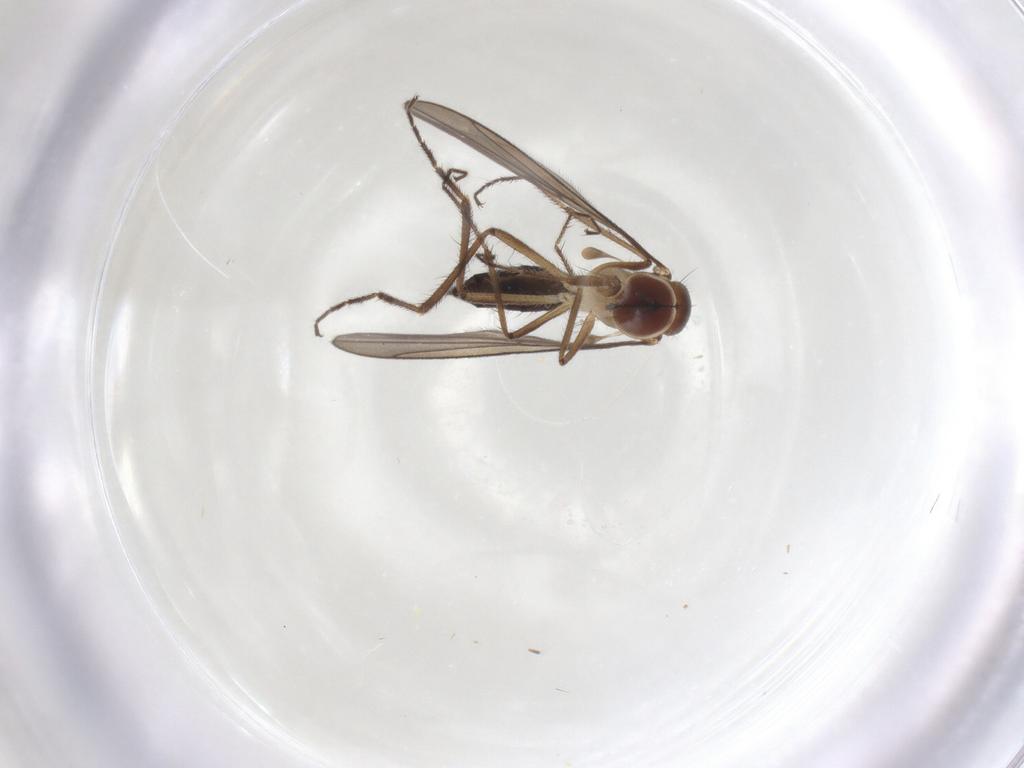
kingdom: Animalia
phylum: Arthropoda
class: Insecta
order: Diptera
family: Hybotidae
